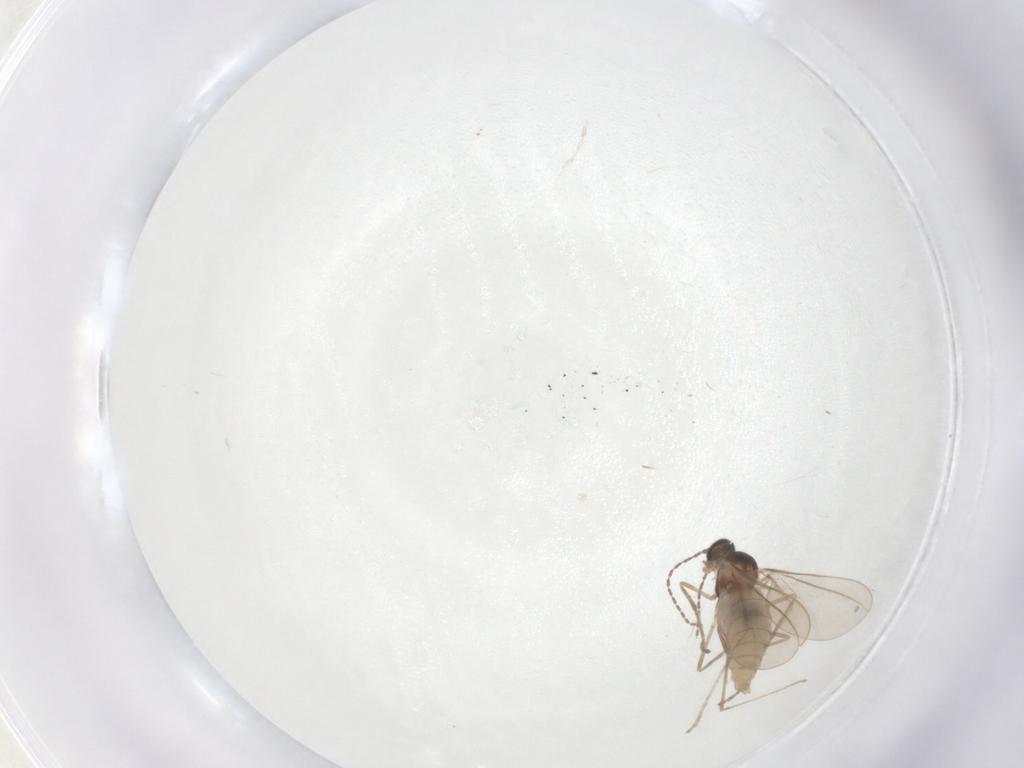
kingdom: Animalia
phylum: Arthropoda
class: Insecta
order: Diptera
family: Cecidomyiidae
